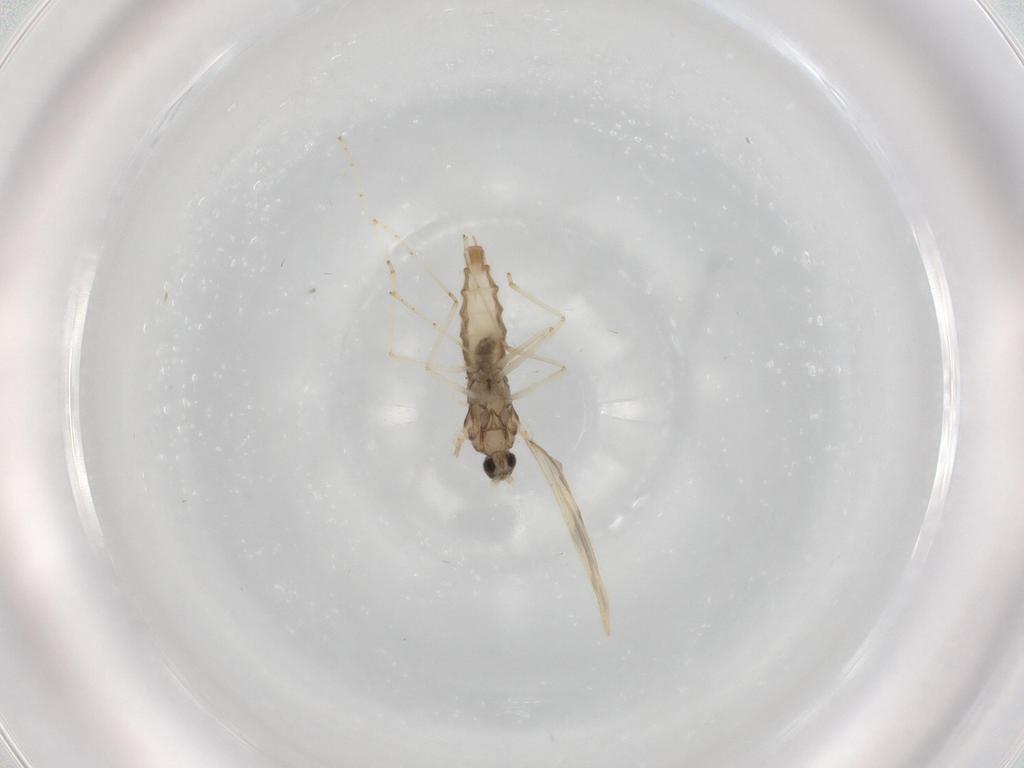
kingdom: Animalia
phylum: Arthropoda
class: Insecta
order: Diptera
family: Cecidomyiidae
